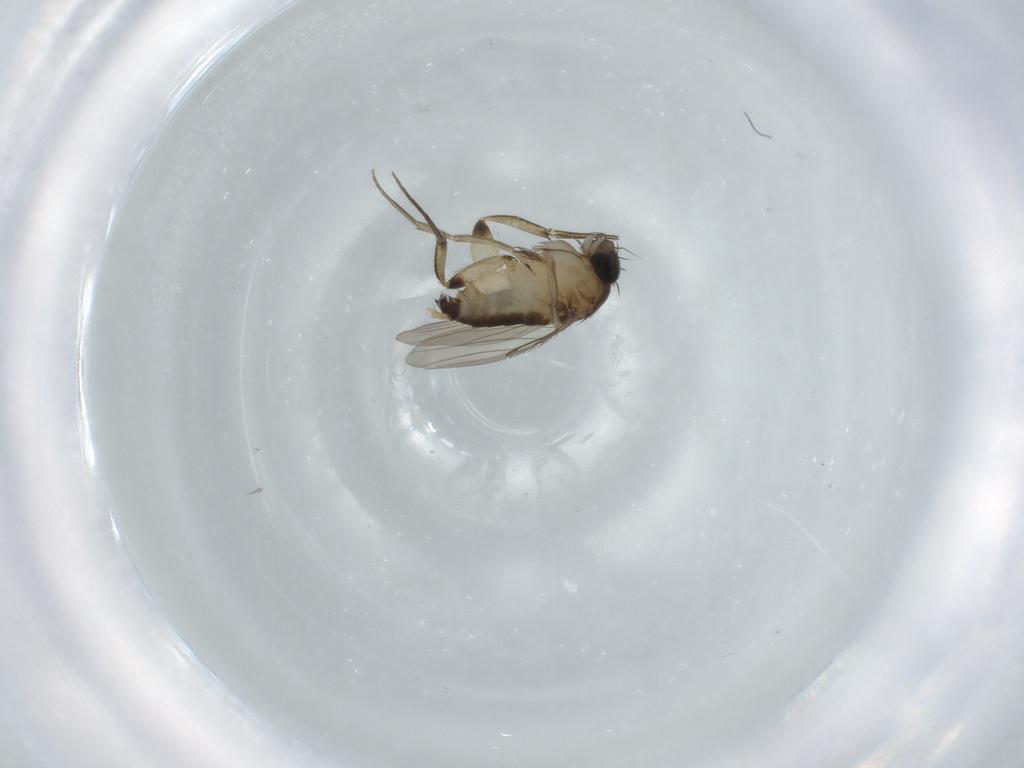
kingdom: Animalia
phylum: Arthropoda
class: Insecta
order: Diptera
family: Phoridae
